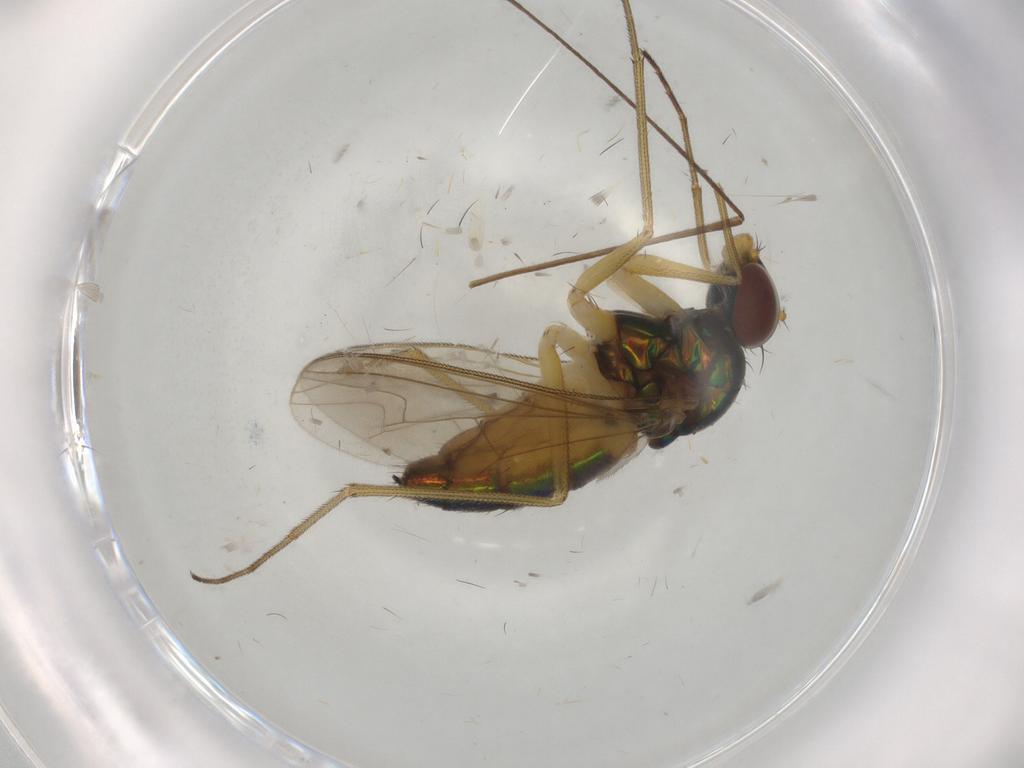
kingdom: Animalia
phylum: Arthropoda
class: Insecta
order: Diptera
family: Dolichopodidae
